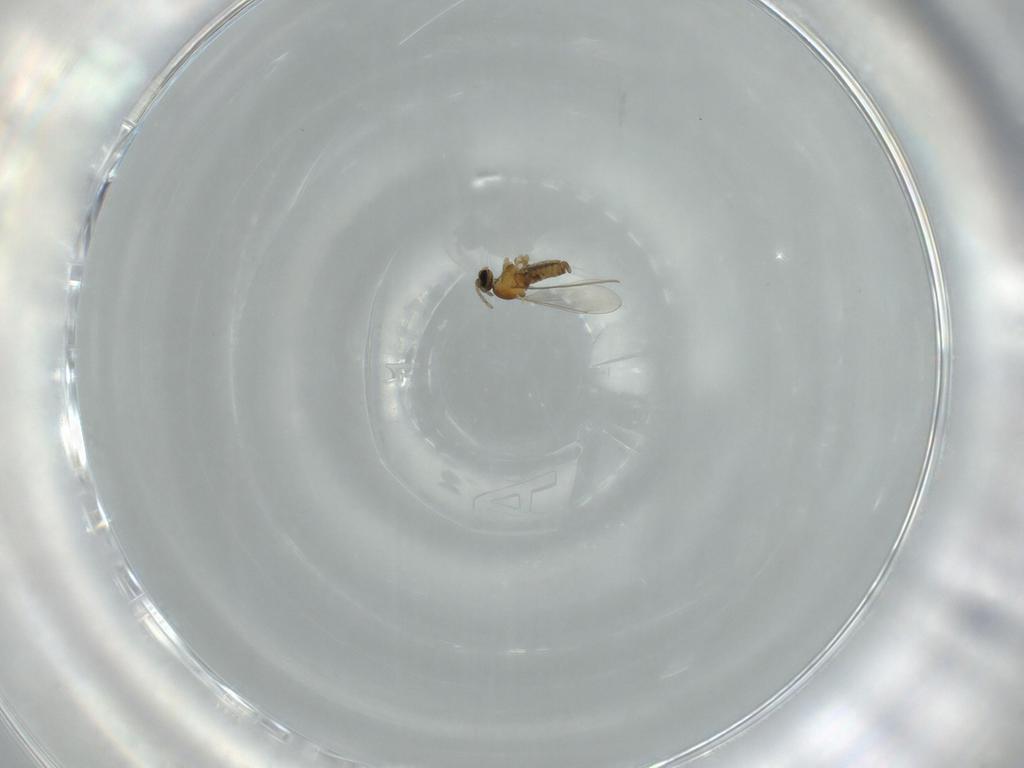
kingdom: Animalia
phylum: Arthropoda
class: Insecta
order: Diptera
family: Cecidomyiidae
